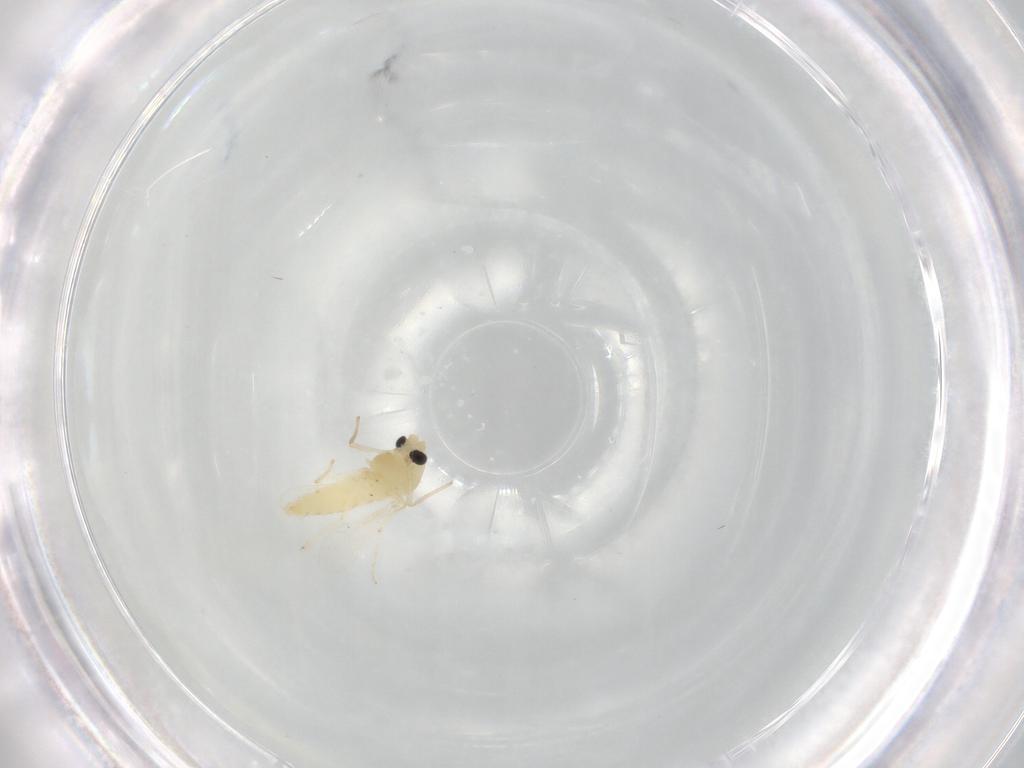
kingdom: Animalia
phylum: Arthropoda
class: Insecta
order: Diptera
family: Chironomidae
